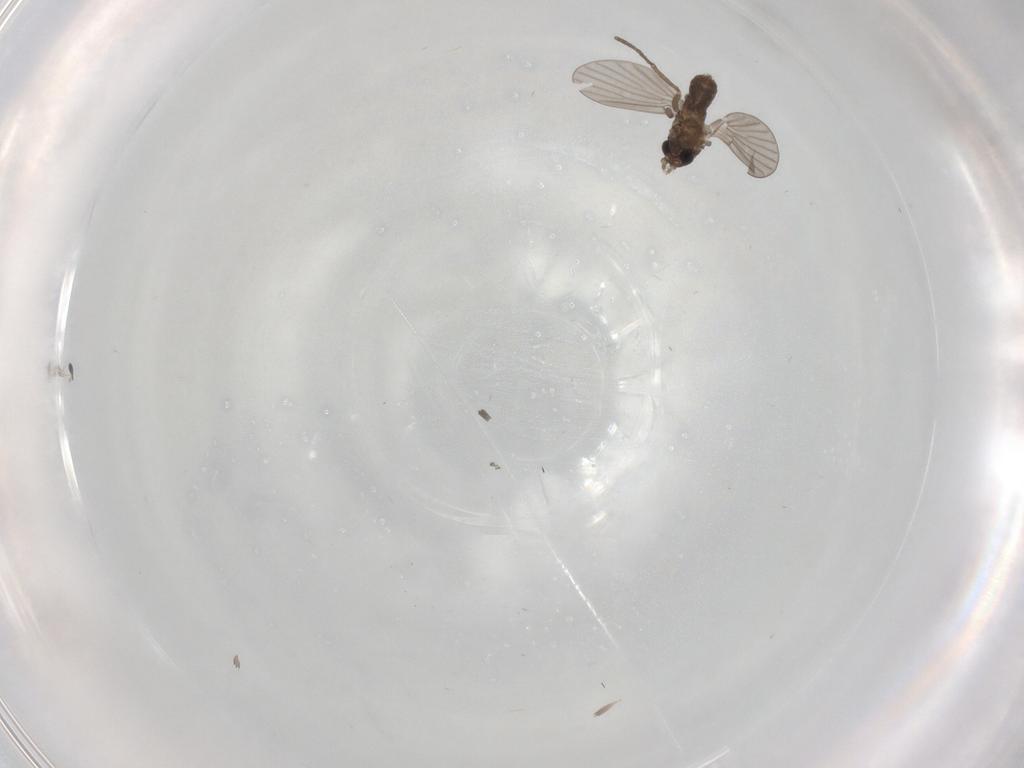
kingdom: Animalia
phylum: Arthropoda
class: Insecta
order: Diptera
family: Cecidomyiidae
